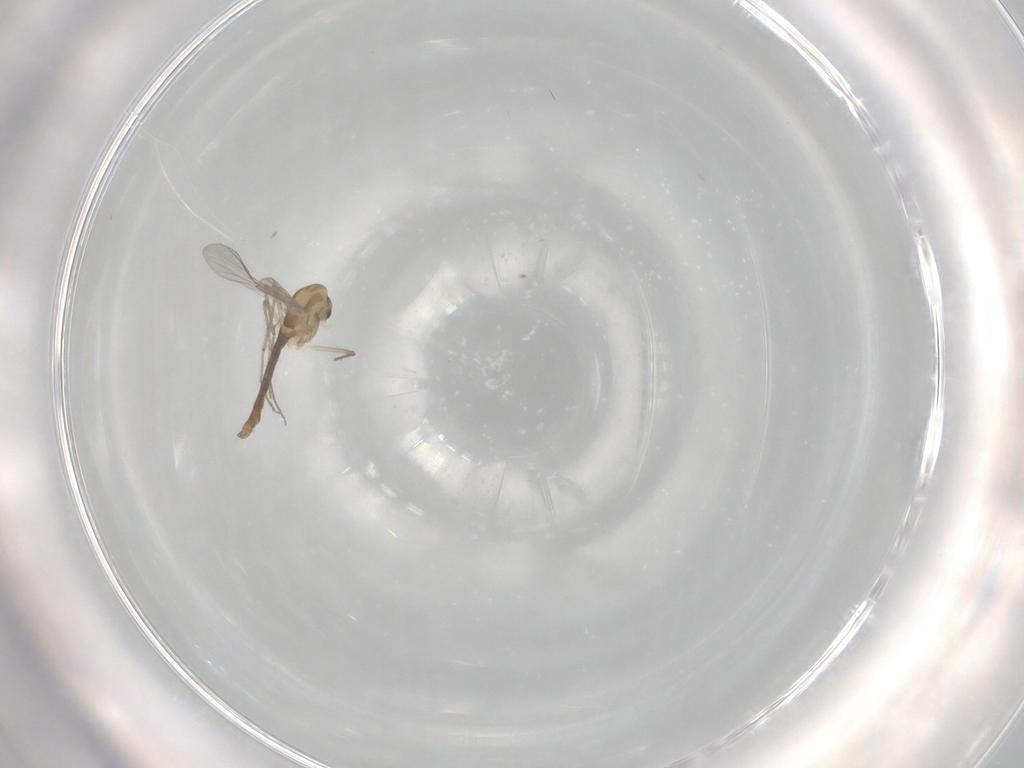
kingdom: Animalia
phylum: Arthropoda
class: Insecta
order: Diptera
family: Chironomidae
